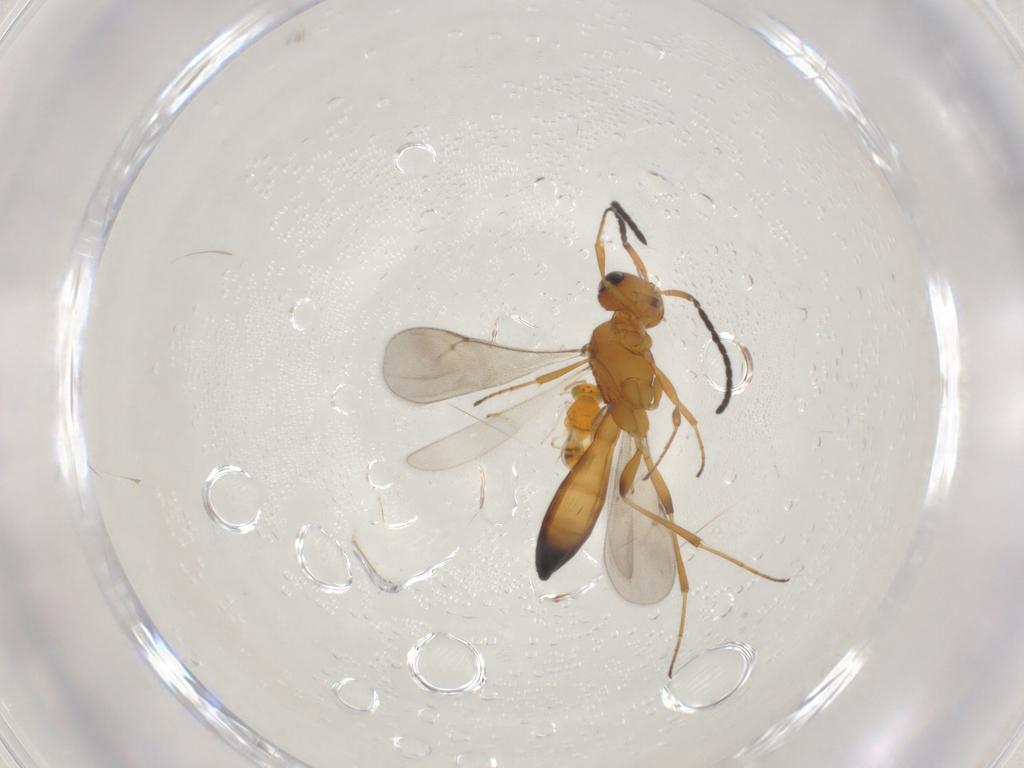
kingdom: Animalia
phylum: Arthropoda
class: Insecta
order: Hymenoptera
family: Scelionidae
